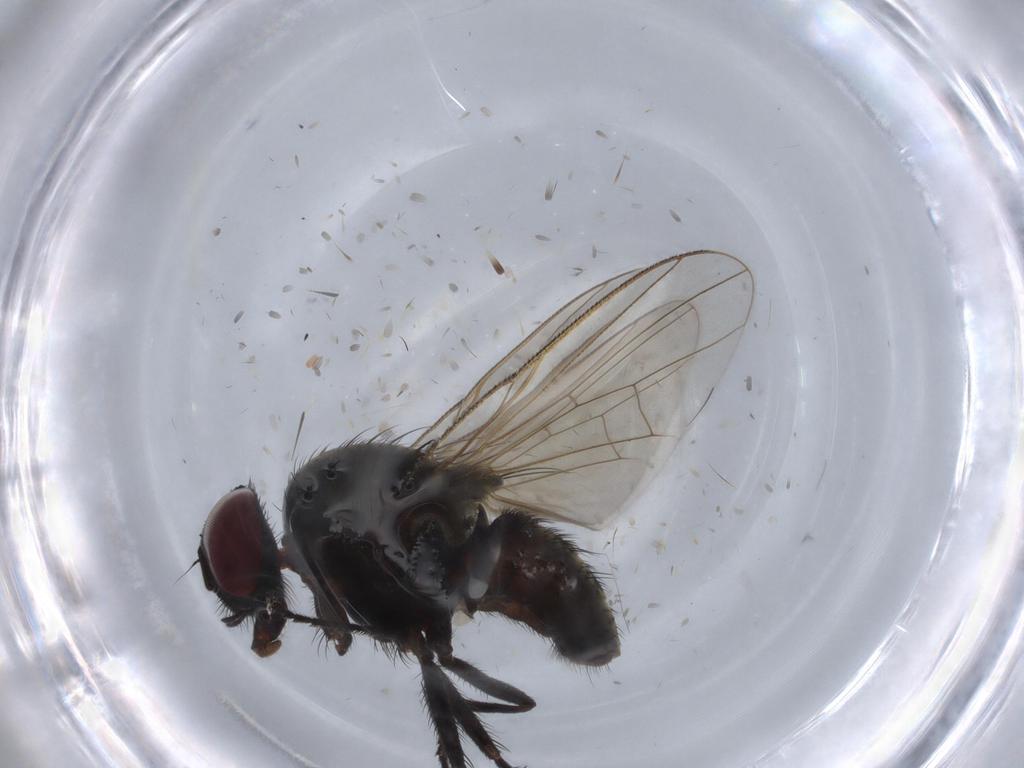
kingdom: Animalia
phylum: Arthropoda
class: Insecta
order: Diptera
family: Muscidae
